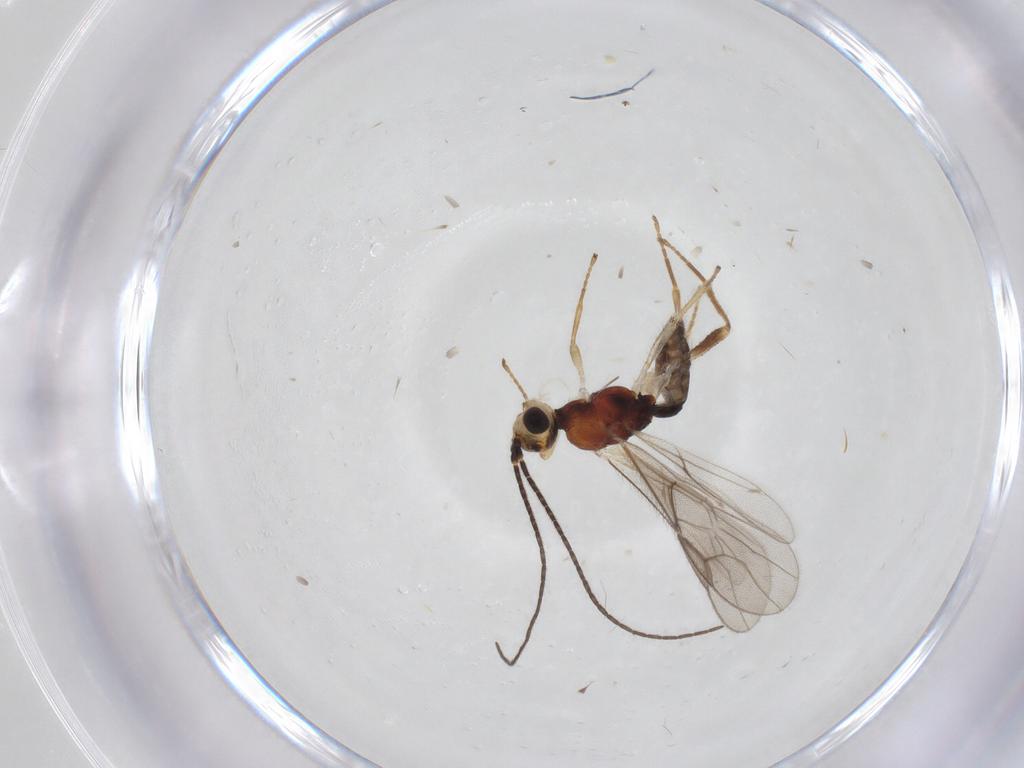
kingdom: Animalia
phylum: Arthropoda
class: Insecta
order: Hymenoptera
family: Braconidae
